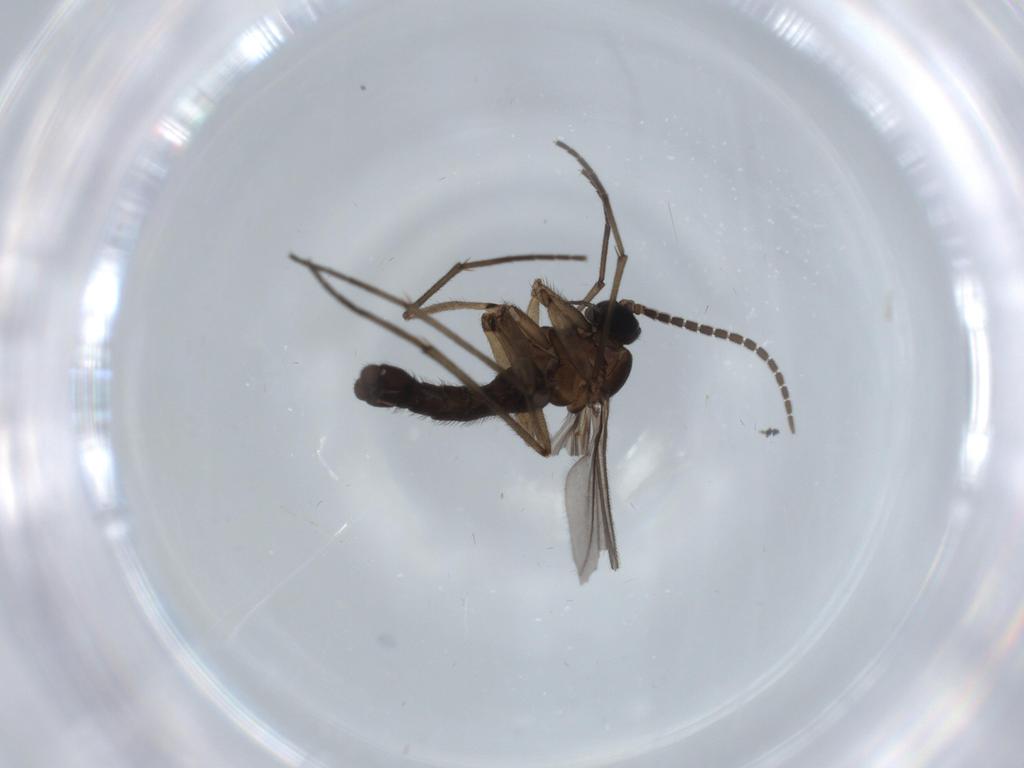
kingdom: Animalia
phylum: Arthropoda
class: Insecta
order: Diptera
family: Sciaridae
